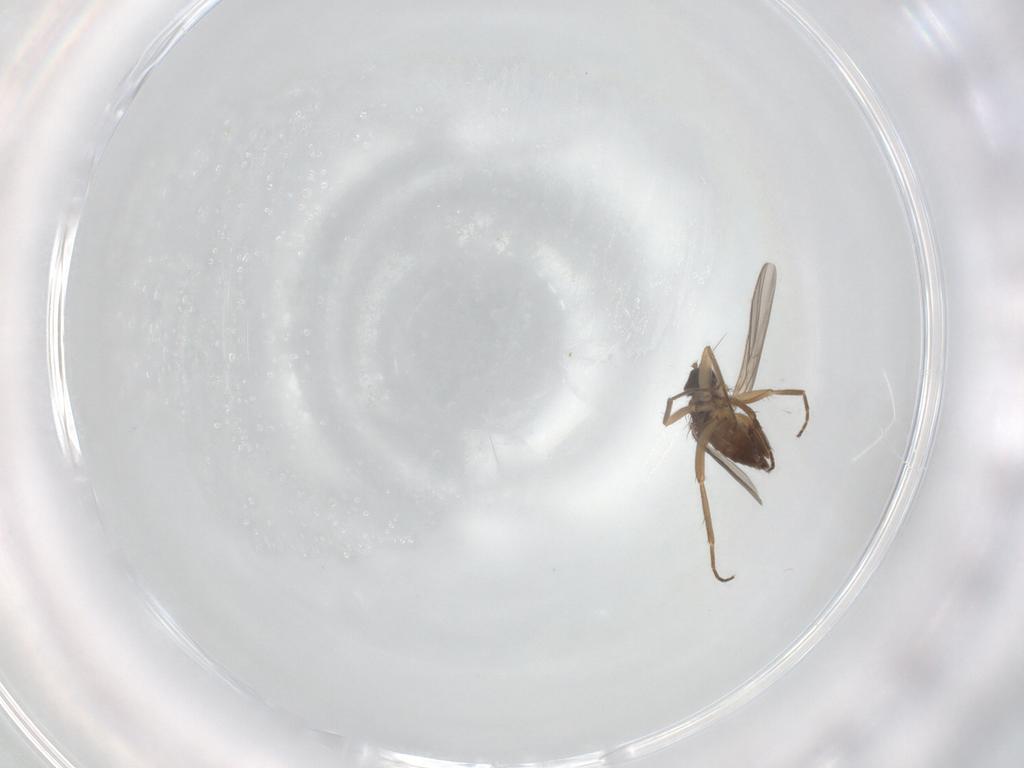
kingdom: Animalia
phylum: Arthropoda
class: Insecta
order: Diptera
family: Hybotidae
